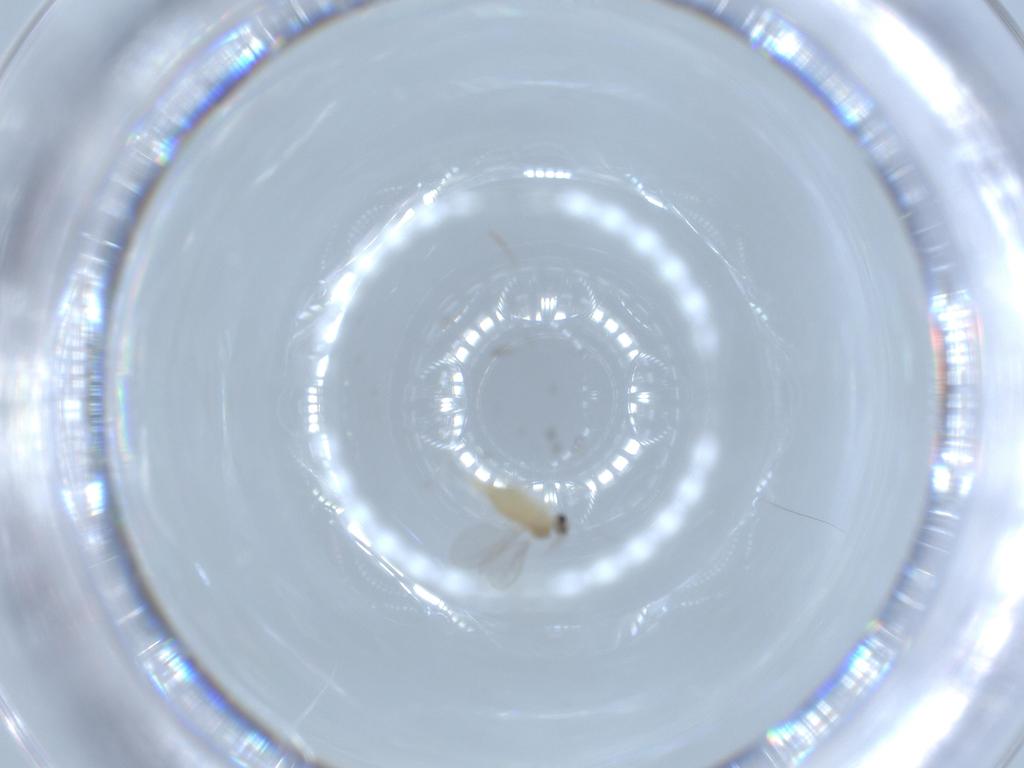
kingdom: Animalia
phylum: Arthropoda
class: Insecta
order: Diptera
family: Cecidomyiidae
